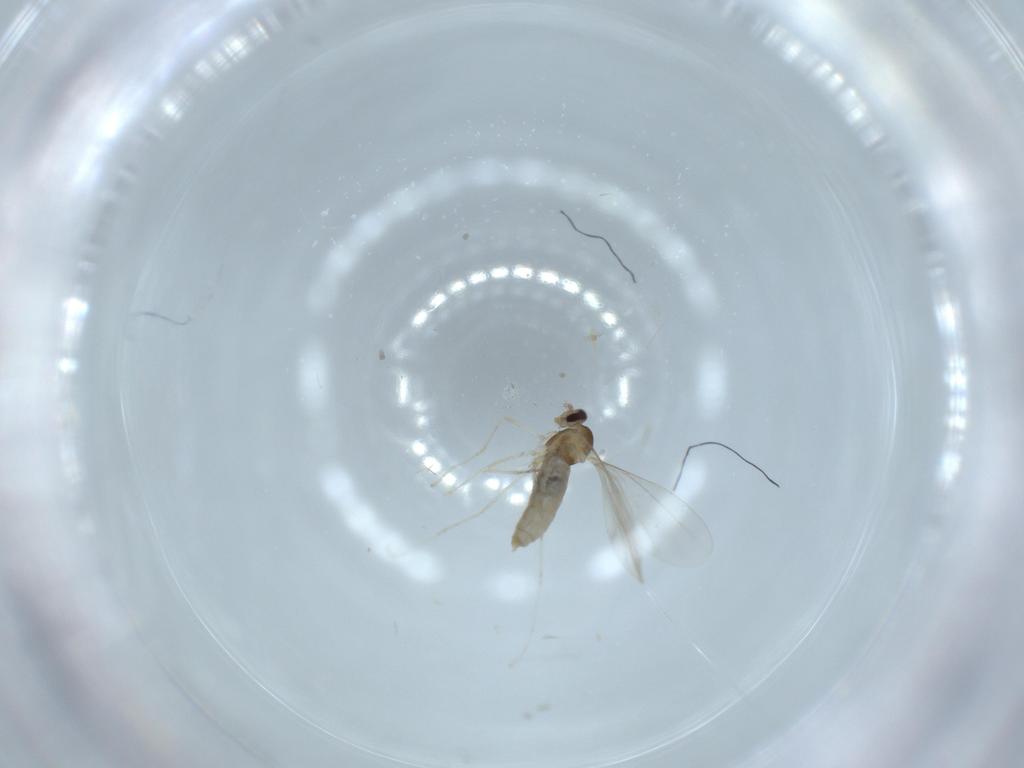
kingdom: Animalia
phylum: Arthropoda
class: Insecta
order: Diptera
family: Cecidomyiidae
